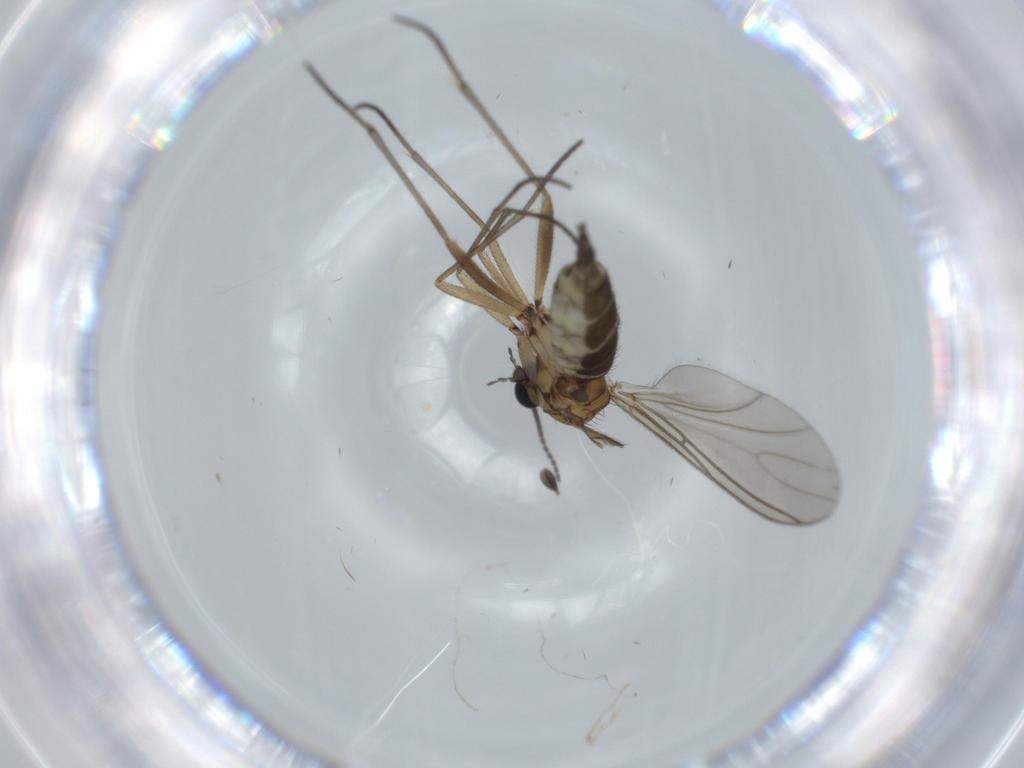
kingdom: Animalia
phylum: Arthropoda
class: Insecta
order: Diptera
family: Sciaridae
